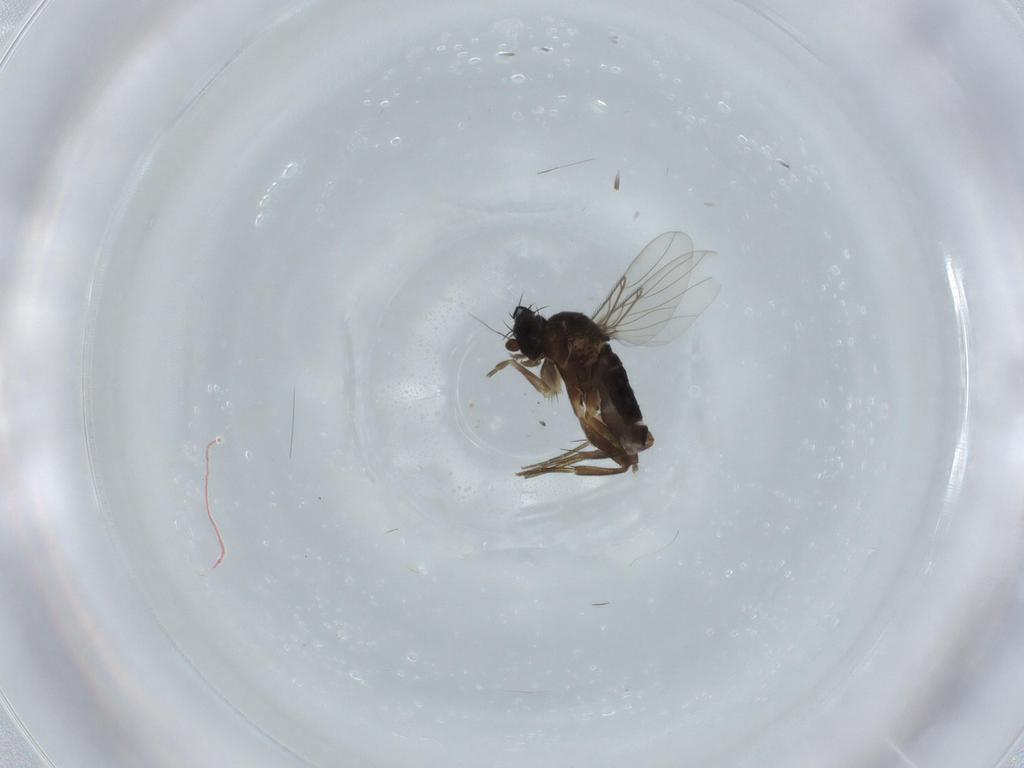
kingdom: Animalia
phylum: Arthropoda
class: Insecta
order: Diptera
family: Phoridae
